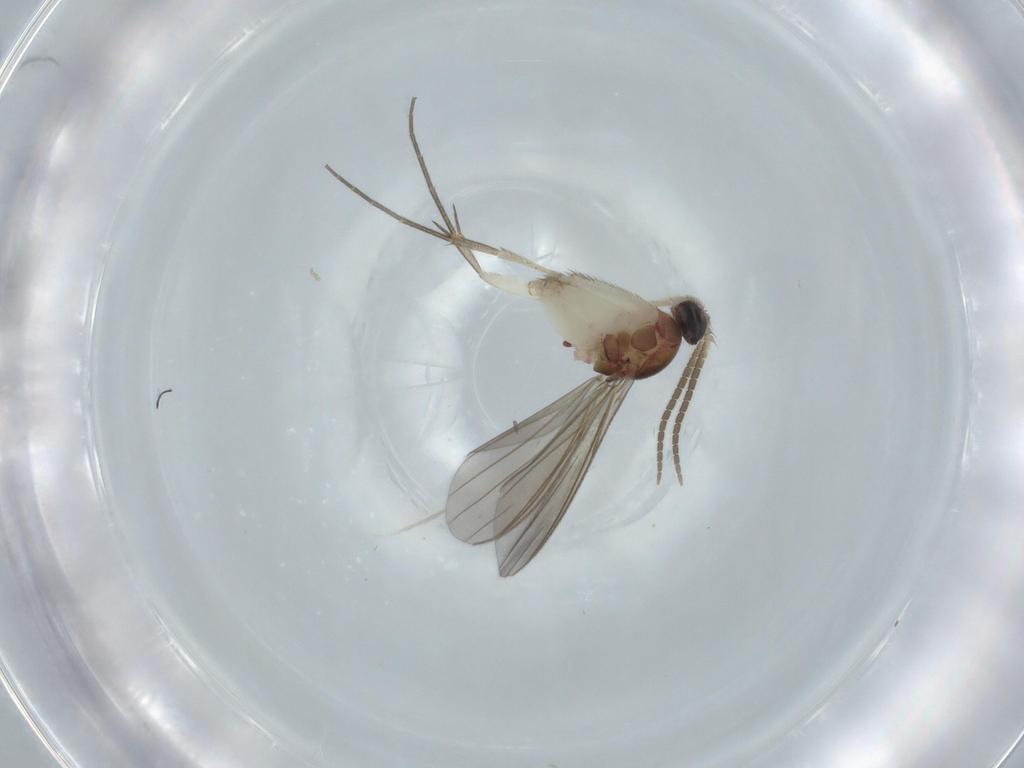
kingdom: Animalia
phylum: Arthropoda
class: Insecta
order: Diptera
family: Mycetophilidae
